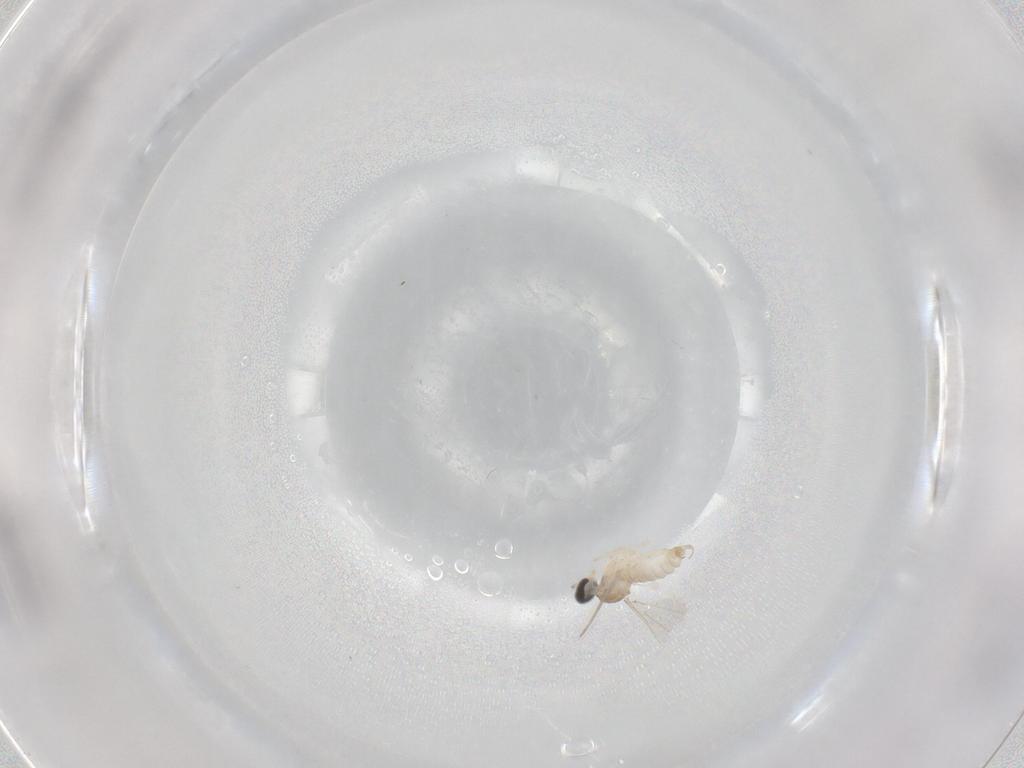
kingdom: Animalia
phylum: Arthropoda
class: Insecta
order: Diptera
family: Cecidomyiidae
